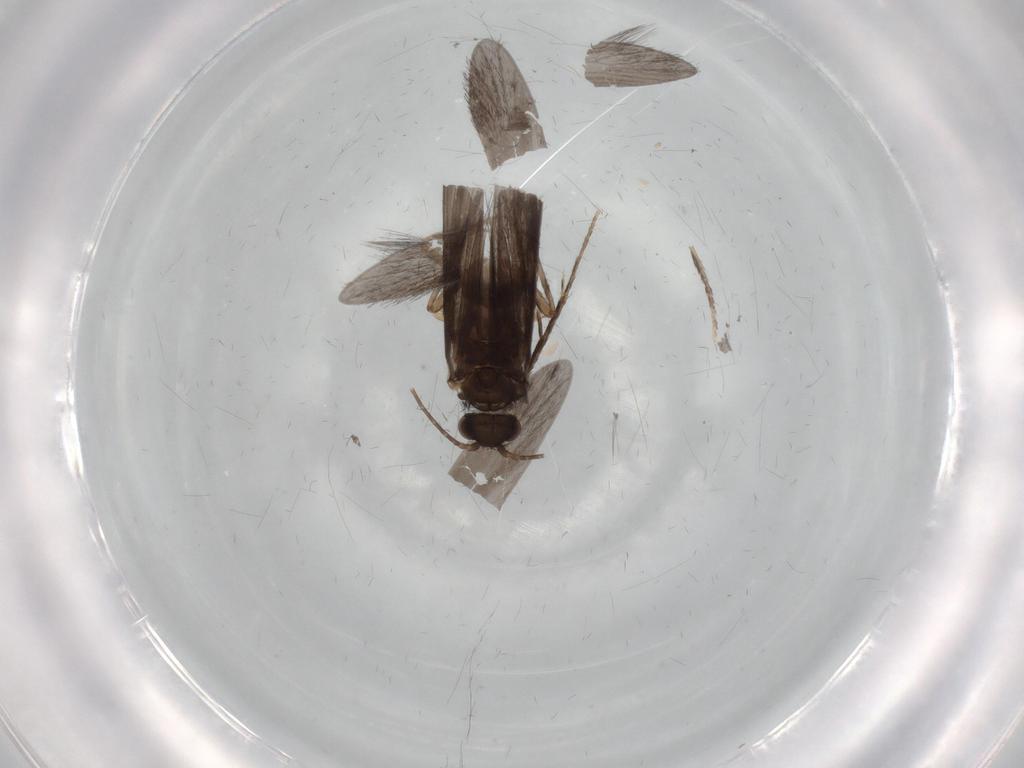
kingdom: Animalia
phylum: Arthropoda
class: Insecta
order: Trichoptera
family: Xiphocentronidae
